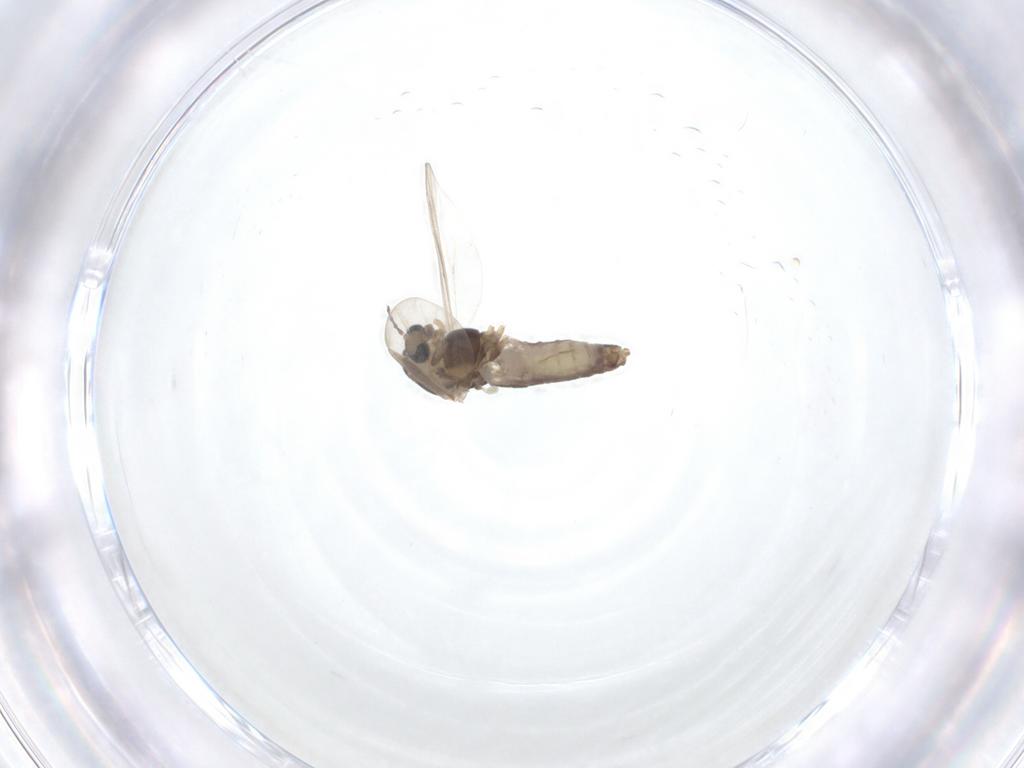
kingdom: Animalia
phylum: Arthropoda
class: Insecta
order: Diptera
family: Chironomidae
